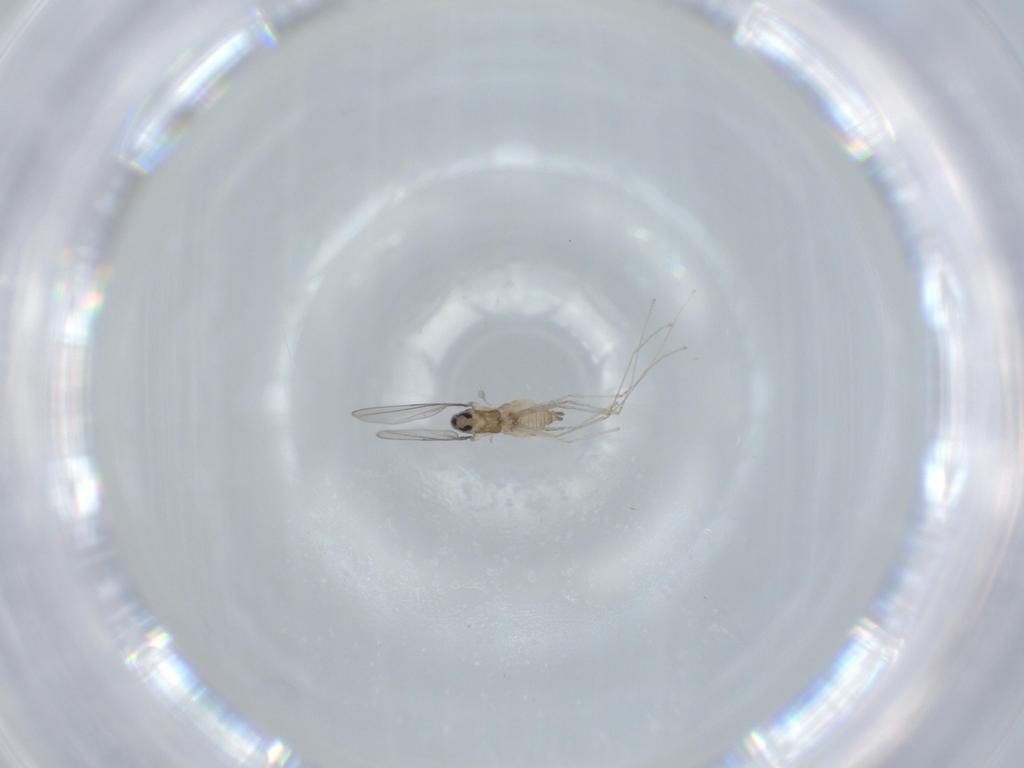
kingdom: Animalia
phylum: Arthropoda
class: Insecta
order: Diptera
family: Cecidomyiidae
